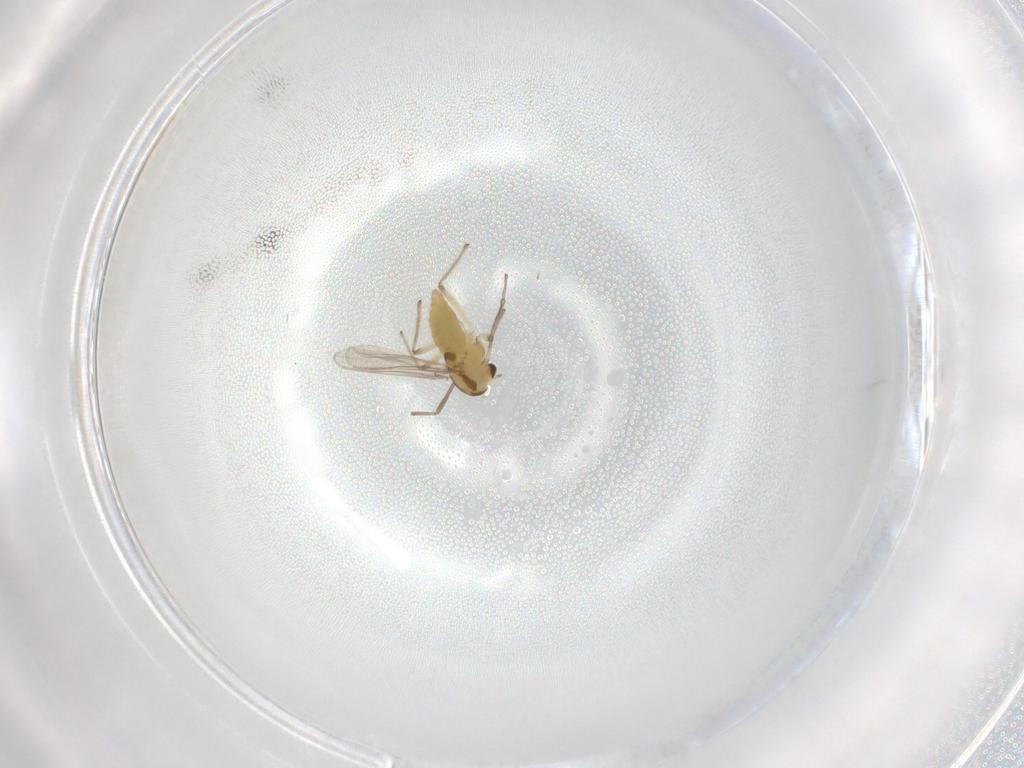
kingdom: Animalia
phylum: Arthropoda
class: Insecta
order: Diptera
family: Chironomidae
